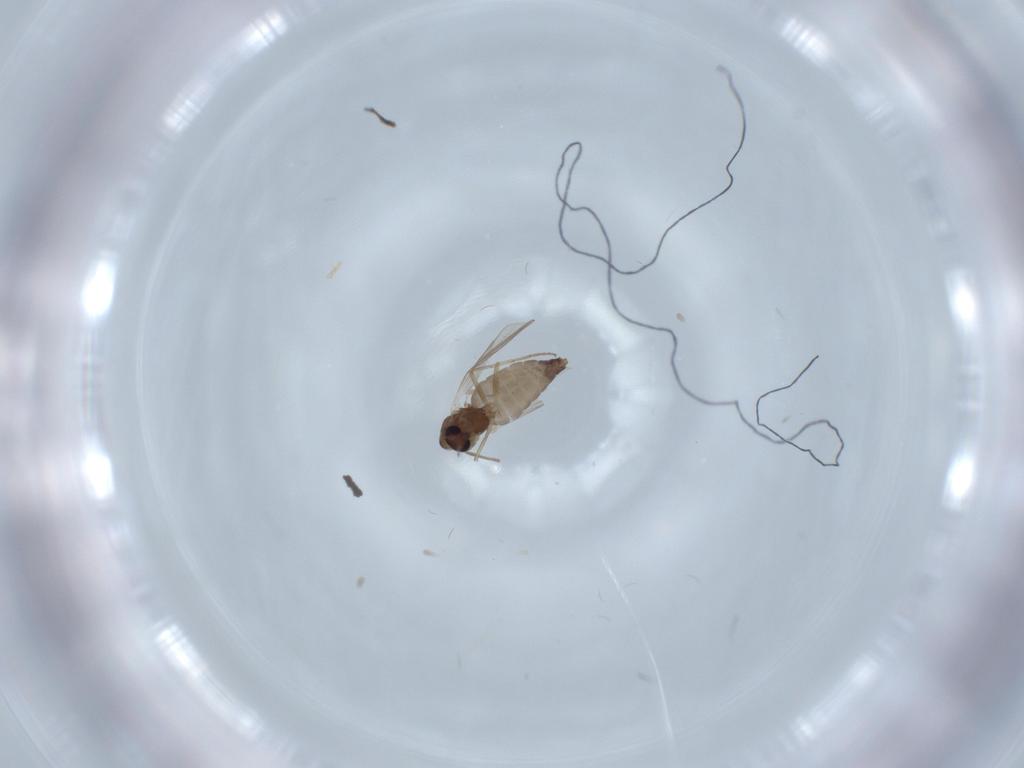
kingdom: Animalia
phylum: Arthropoda
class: Insecta
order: Diptera
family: Chironomidae
